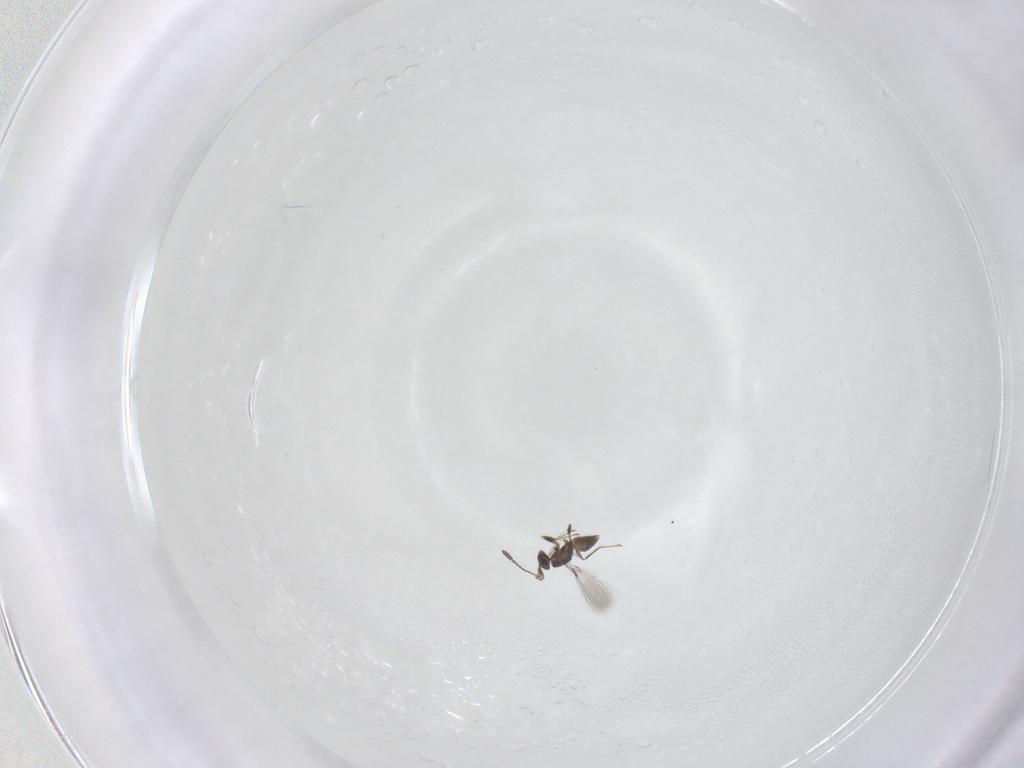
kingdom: Animalia
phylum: Arthropoda
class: Insecta
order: Hymenoptera
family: Mymaridae
